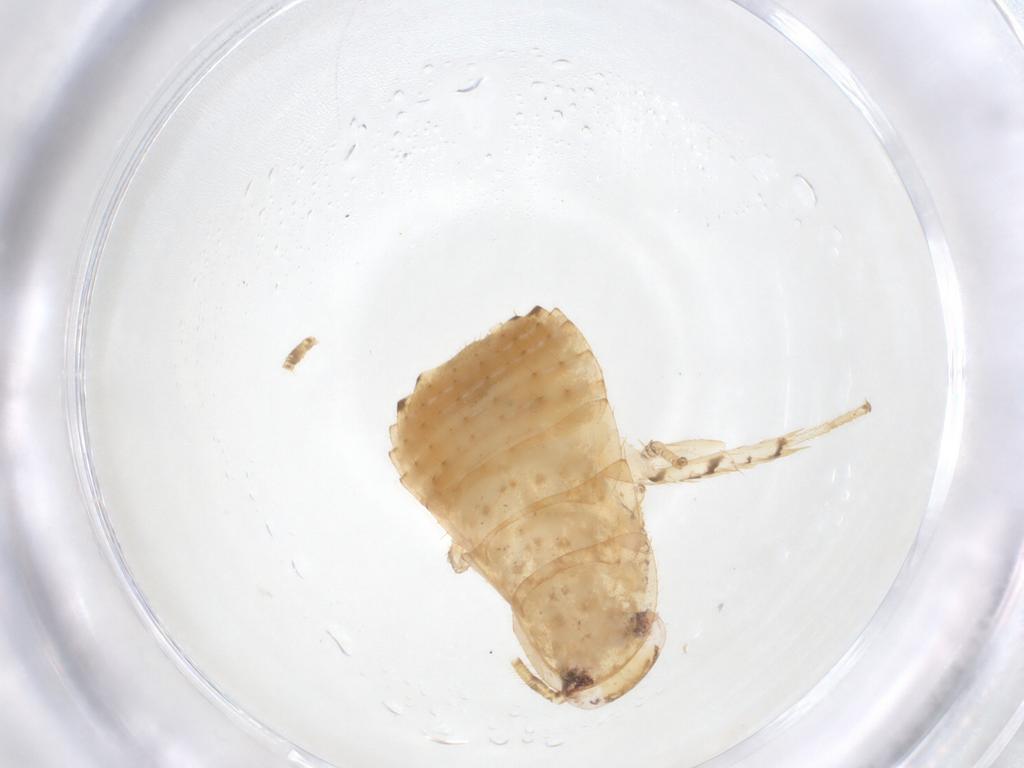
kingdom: Animalia
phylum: Arthropoda
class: Insecta
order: Blattodea
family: Ectobiidae
